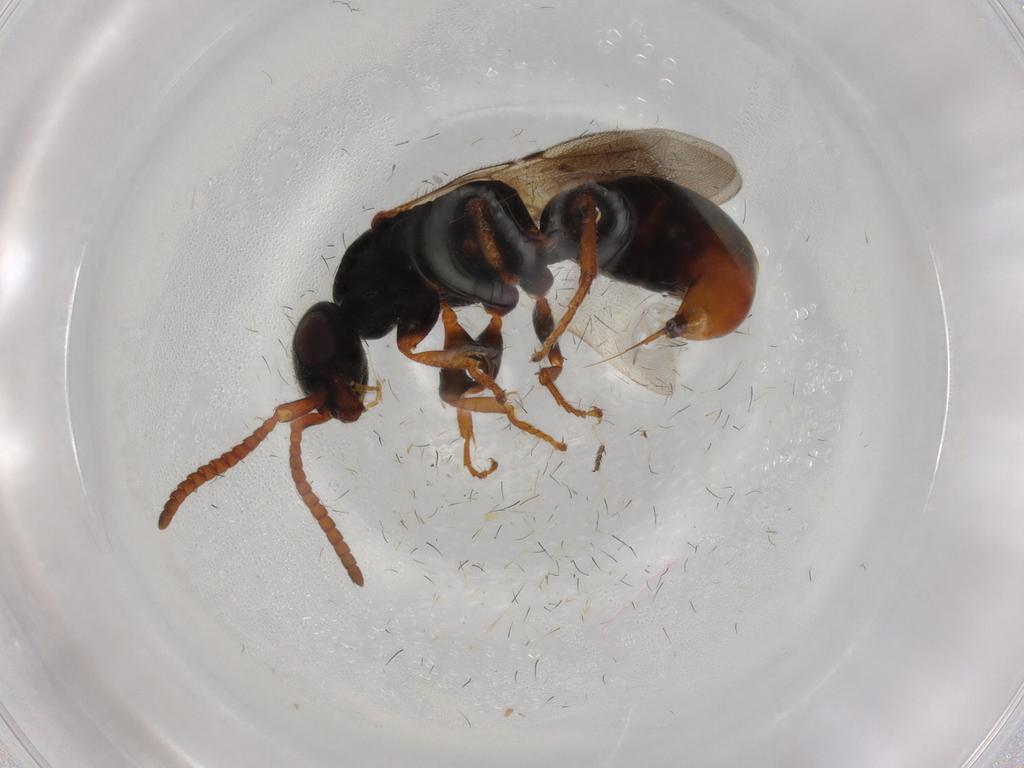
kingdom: Animalia
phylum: Arthropoda
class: Insecta
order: Hymenoptera
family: Bethylidae
